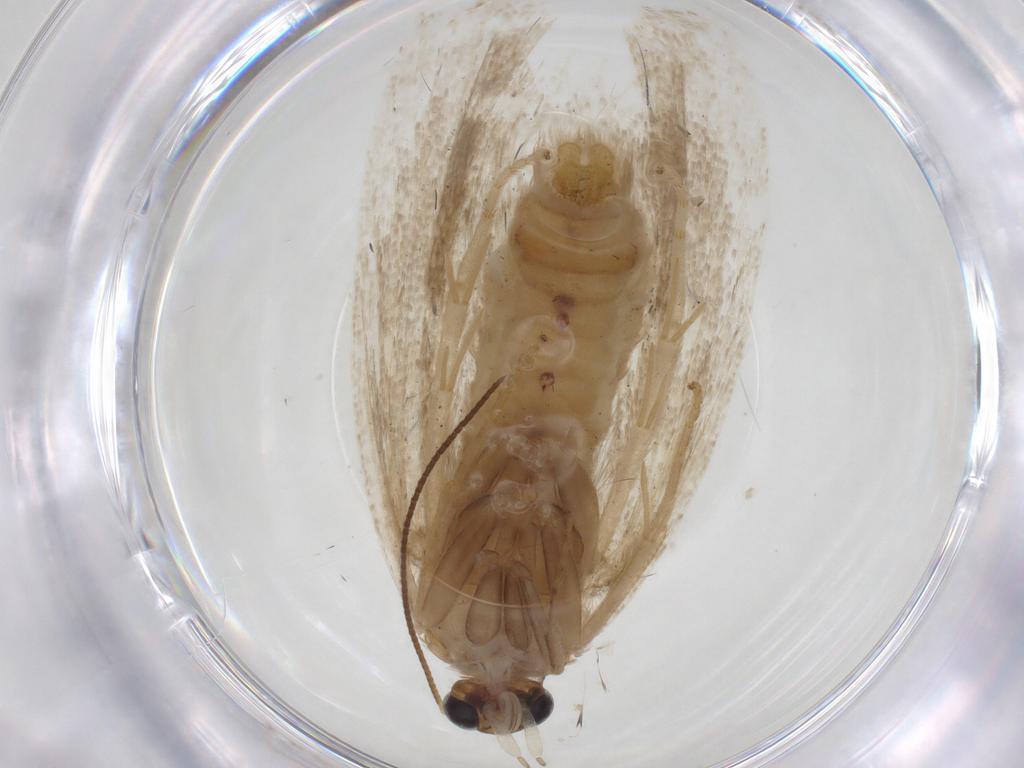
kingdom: Animalia
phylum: Arthropoda
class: Insecta
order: Lepidoptera
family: Tortricidae
